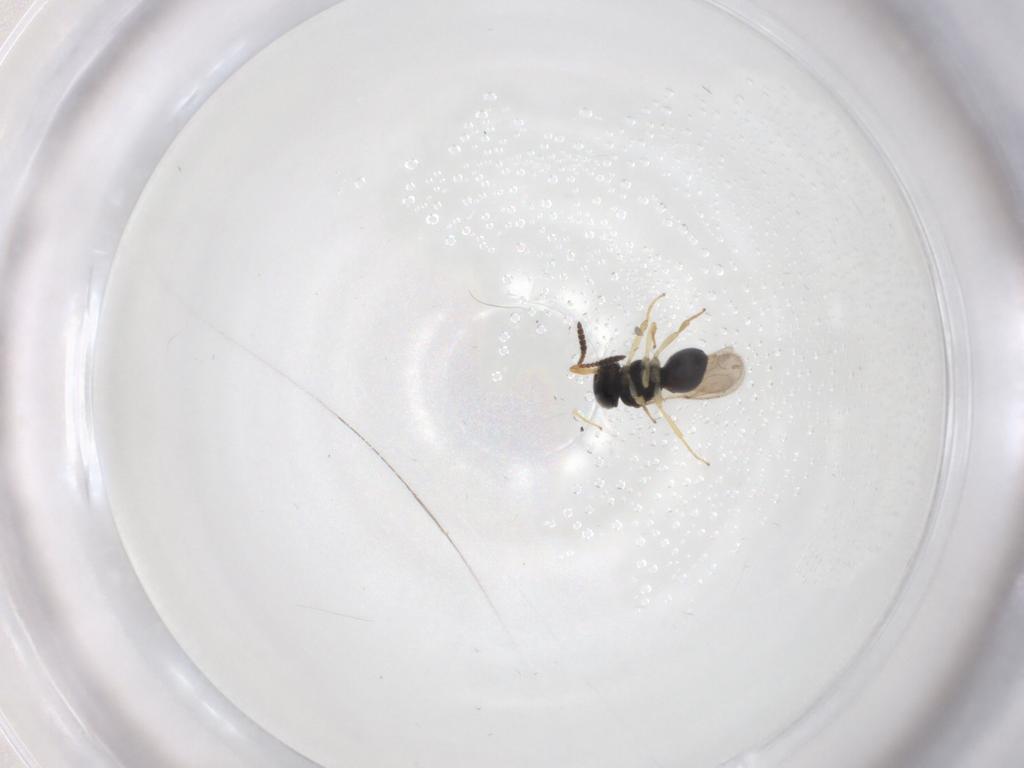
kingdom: Animalia
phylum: Arthropoda
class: Insecta
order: Hymenoptera
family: Scelionidae
